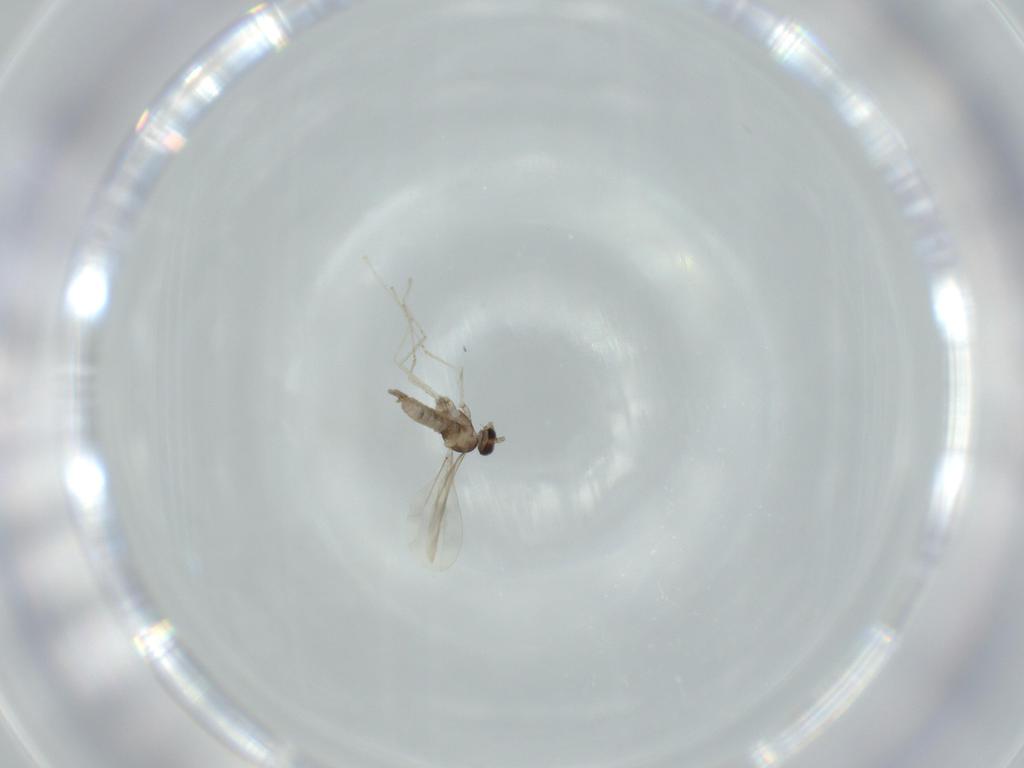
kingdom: Animalia
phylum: Arthropoda
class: Insecta
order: Diptera
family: Cecidomyiidae
